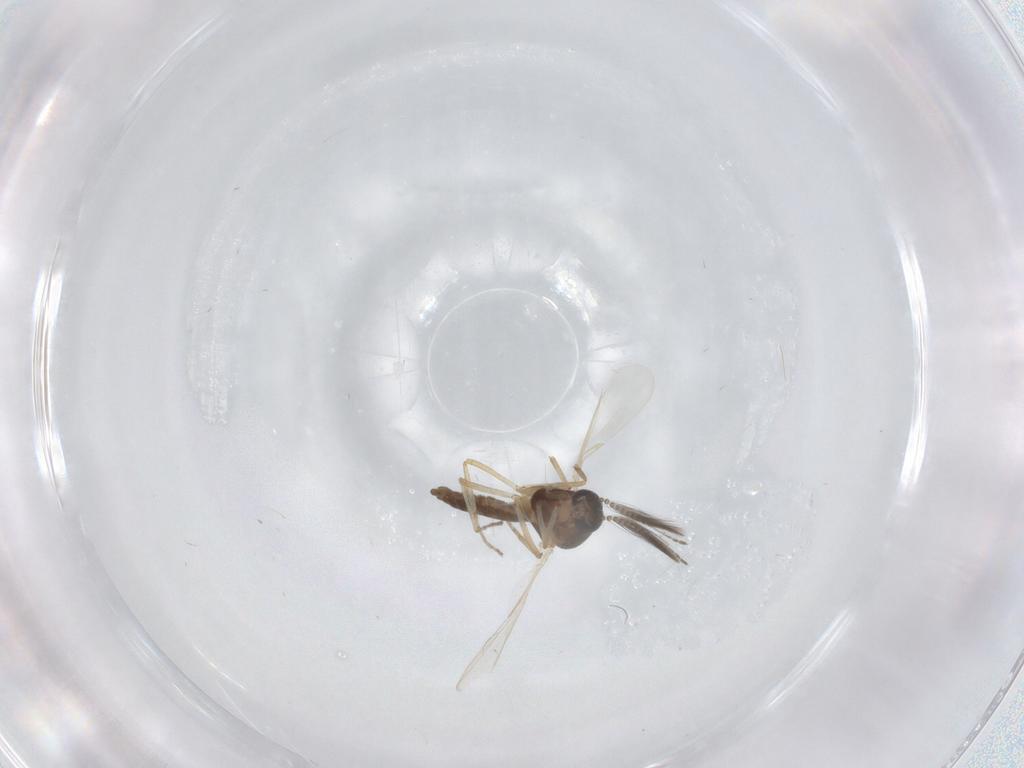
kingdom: Animalia
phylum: Arthropoda
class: Insecta
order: Diptera
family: Ceratopogonidae
